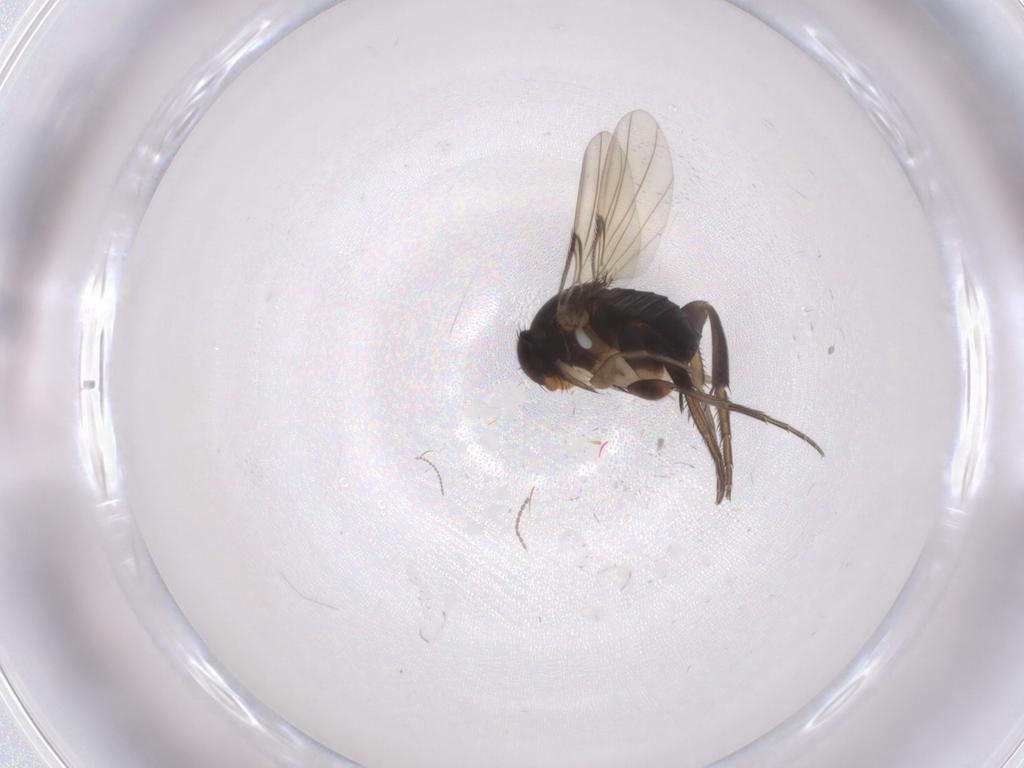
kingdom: Animalia
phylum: Arthropoda
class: Insecta
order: Diptera
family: Phoridae
